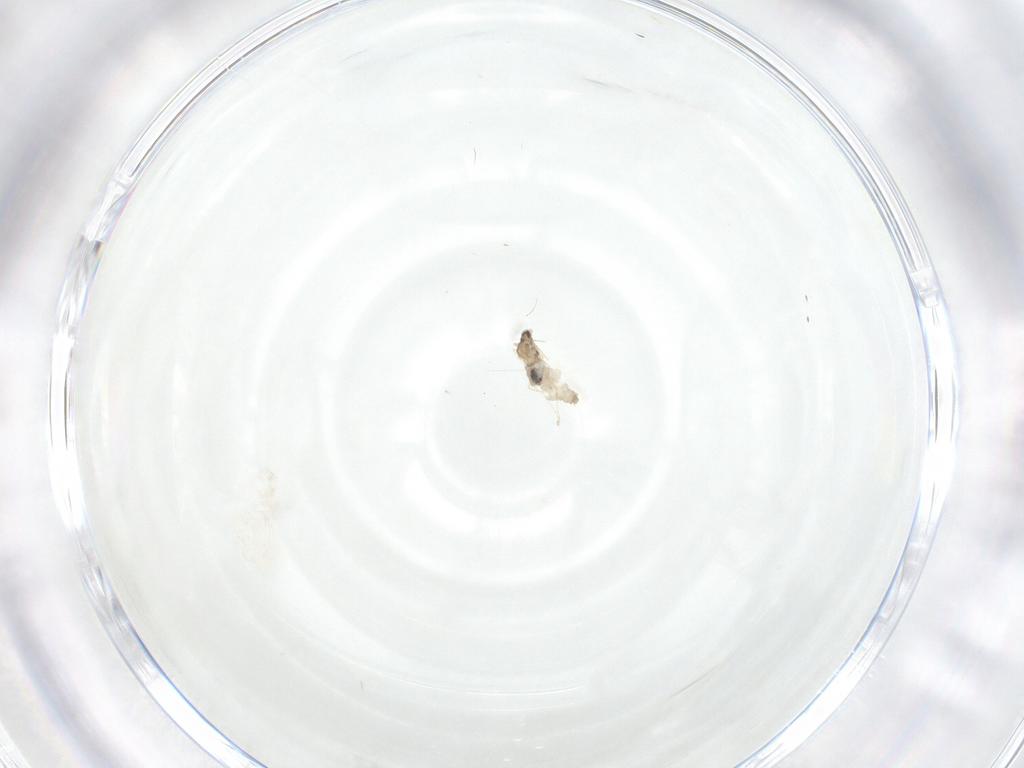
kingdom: Animalia
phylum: Arthropoda
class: Insecta
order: Diptera
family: Cecidomyiidae
